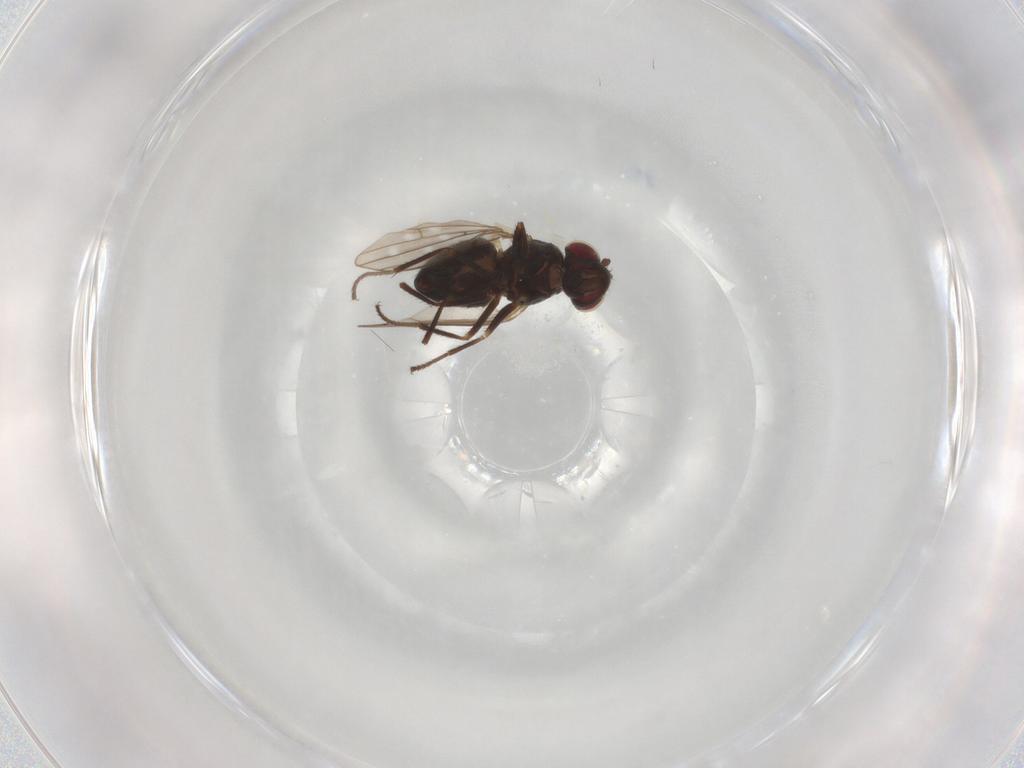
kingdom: Animalia
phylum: Arthropoda
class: Insecta
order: Diptera
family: Ephydridae
